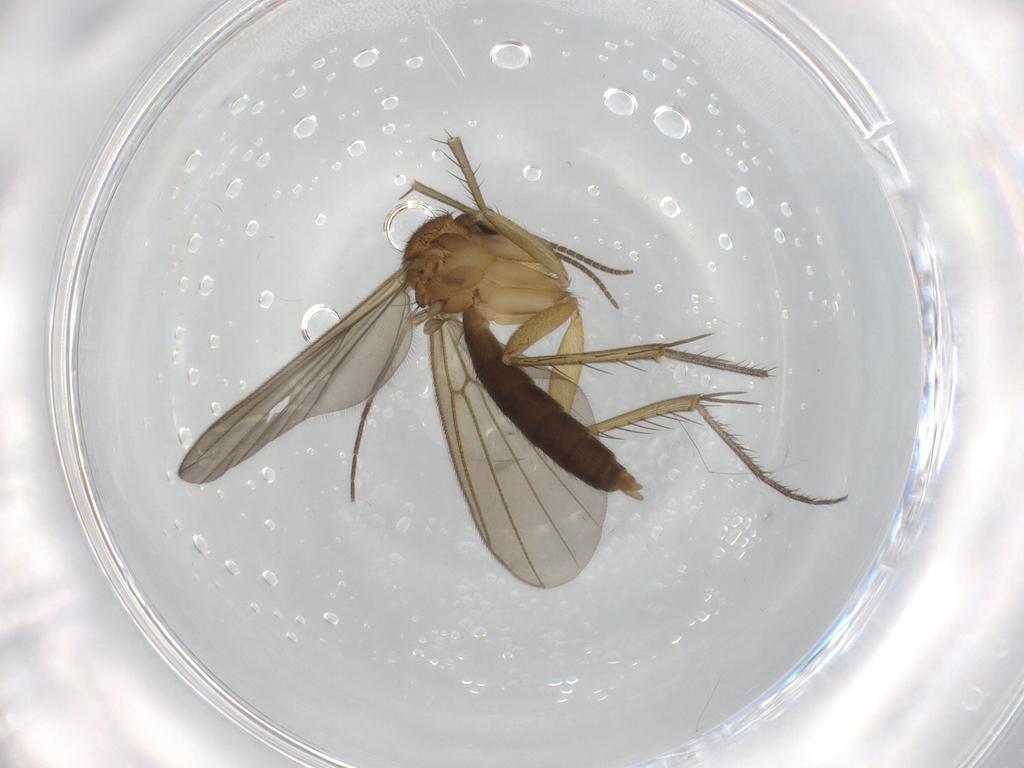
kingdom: Animalia
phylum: Arthropoda
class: Insecta
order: Diptera
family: Mycetophilidae
